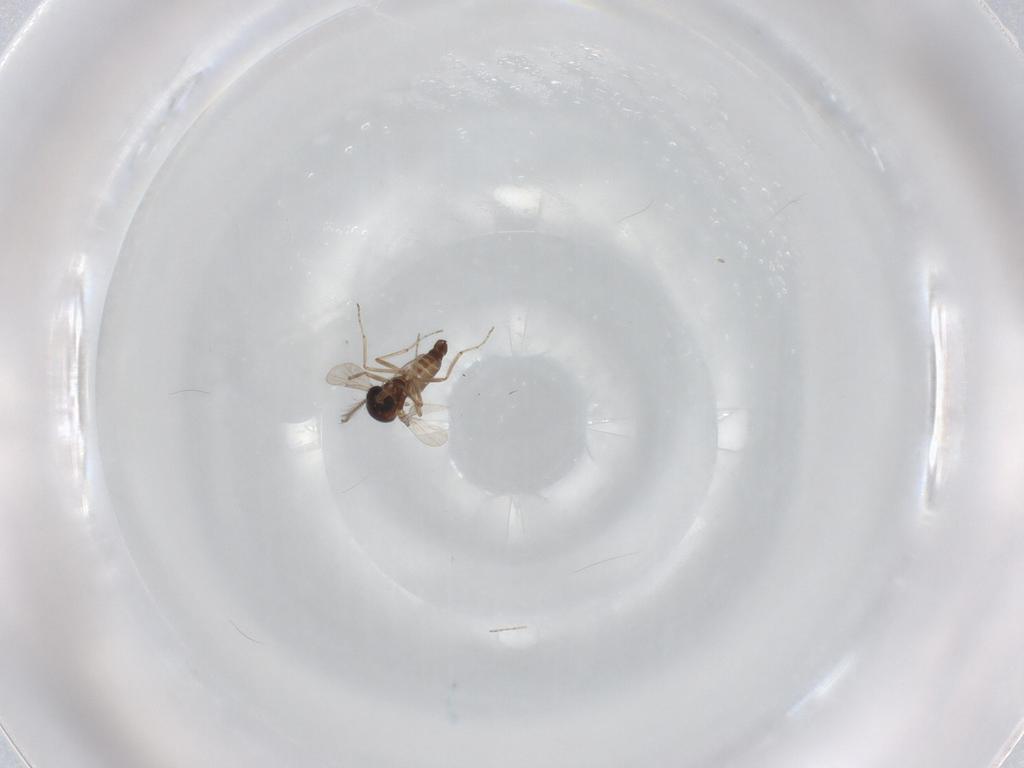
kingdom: Animalia
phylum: Arthropoda
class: Insecta
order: Diptera
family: Ceratopogonidae
